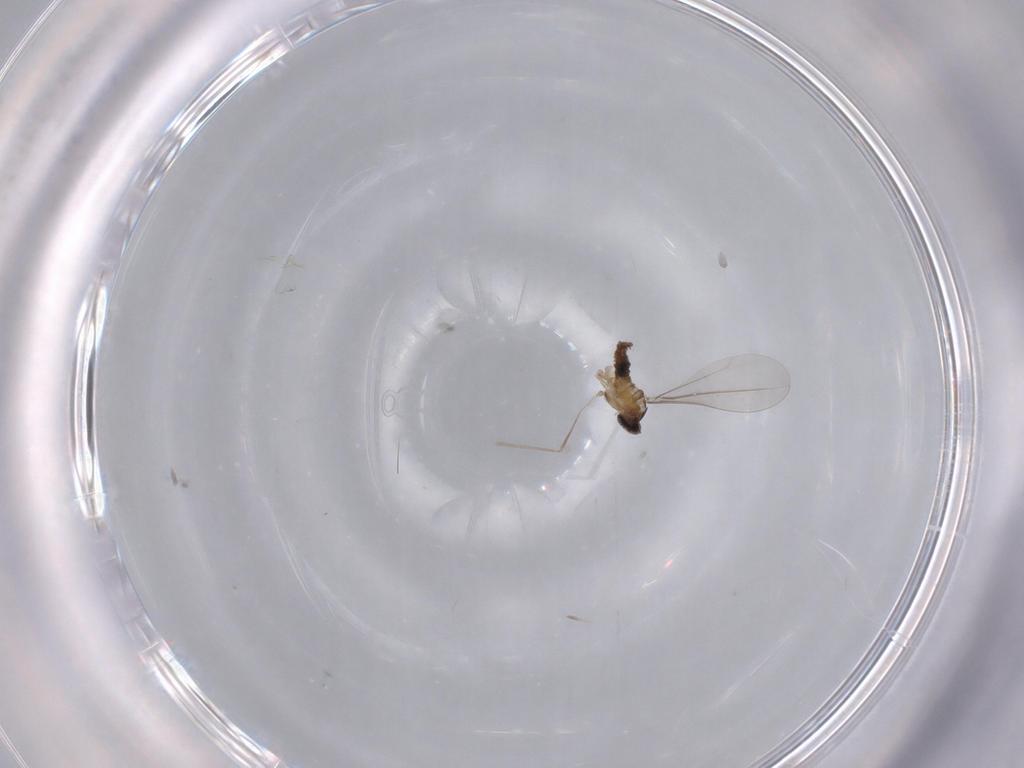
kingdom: Animalia
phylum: Arthropoda
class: Insecta
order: Diptera
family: Cecidomyiidae
